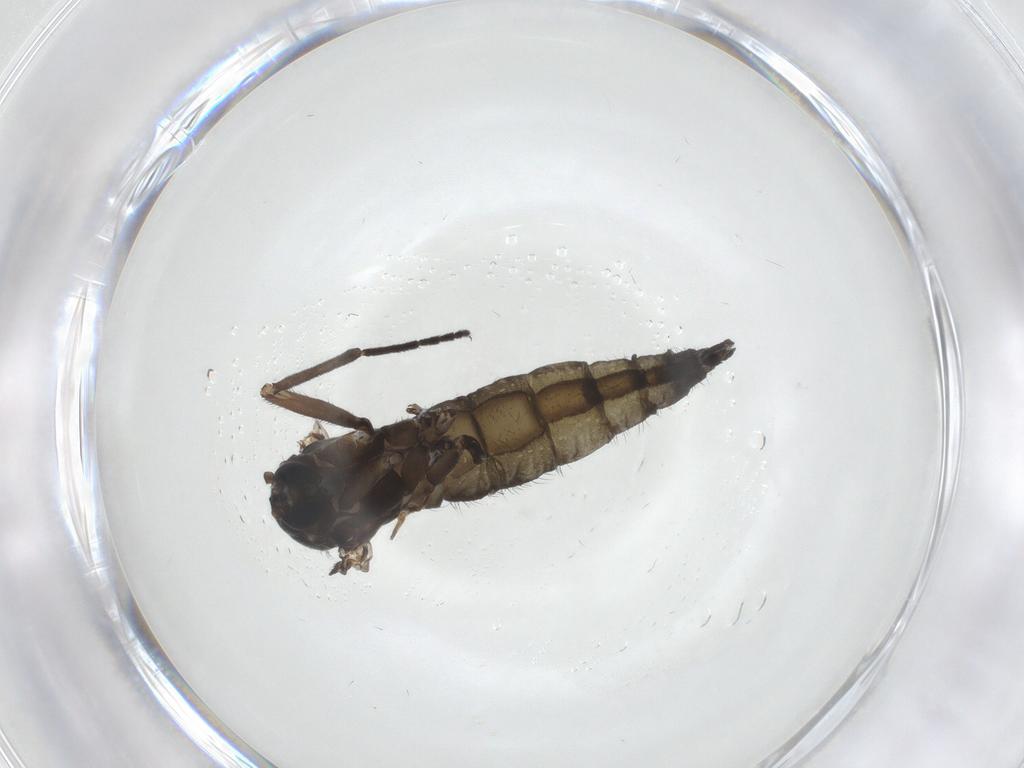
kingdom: Animalia
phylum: Arthropoda
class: Insecta
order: Diptera
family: Sciaridae
